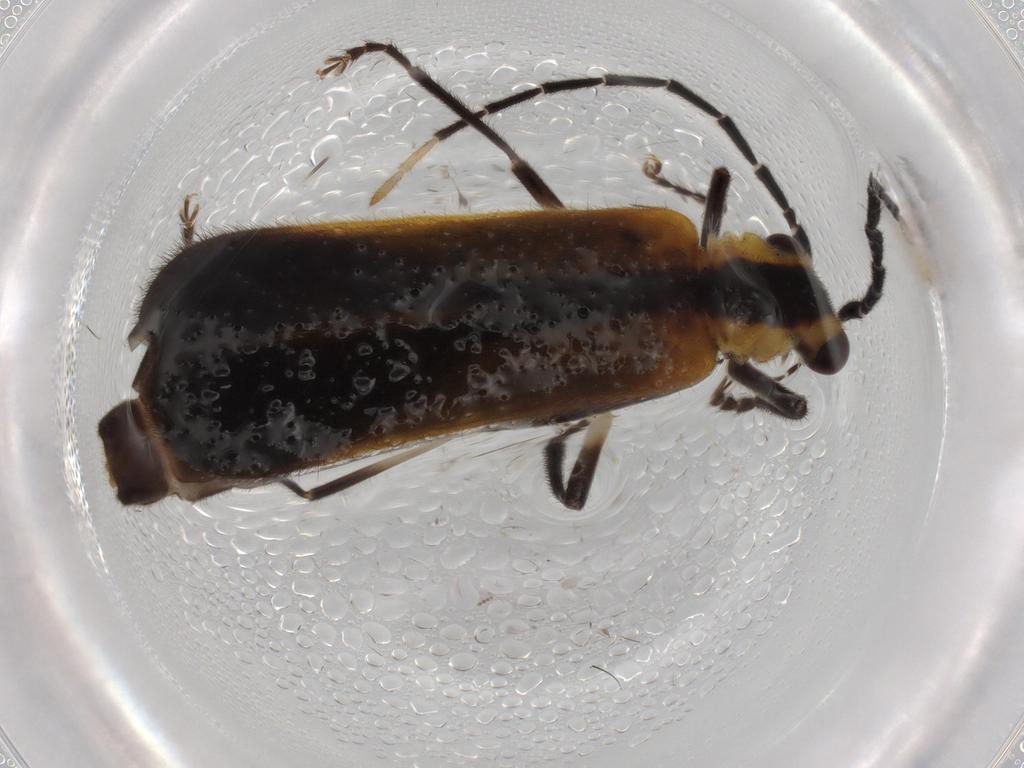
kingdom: Animalia
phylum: Arthropoda
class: Insecta
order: Coleoptera
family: Cantharidae
